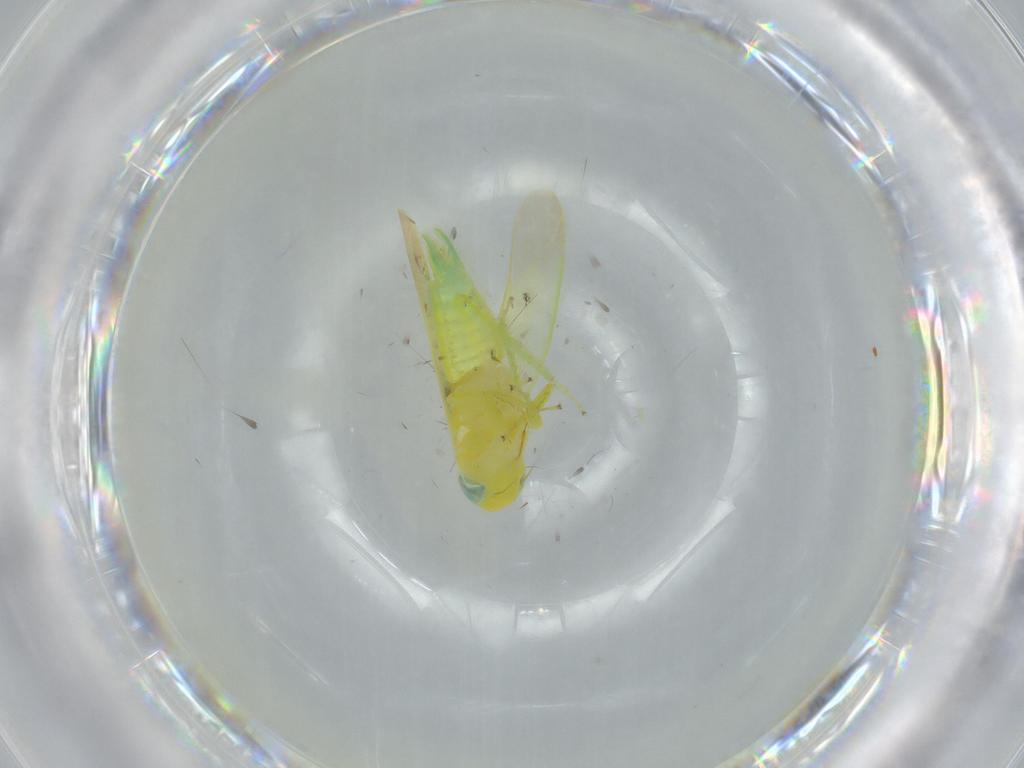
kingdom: Animalia
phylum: Arthropoda
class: Insecta
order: Hemiptera
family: Cicadellidae
